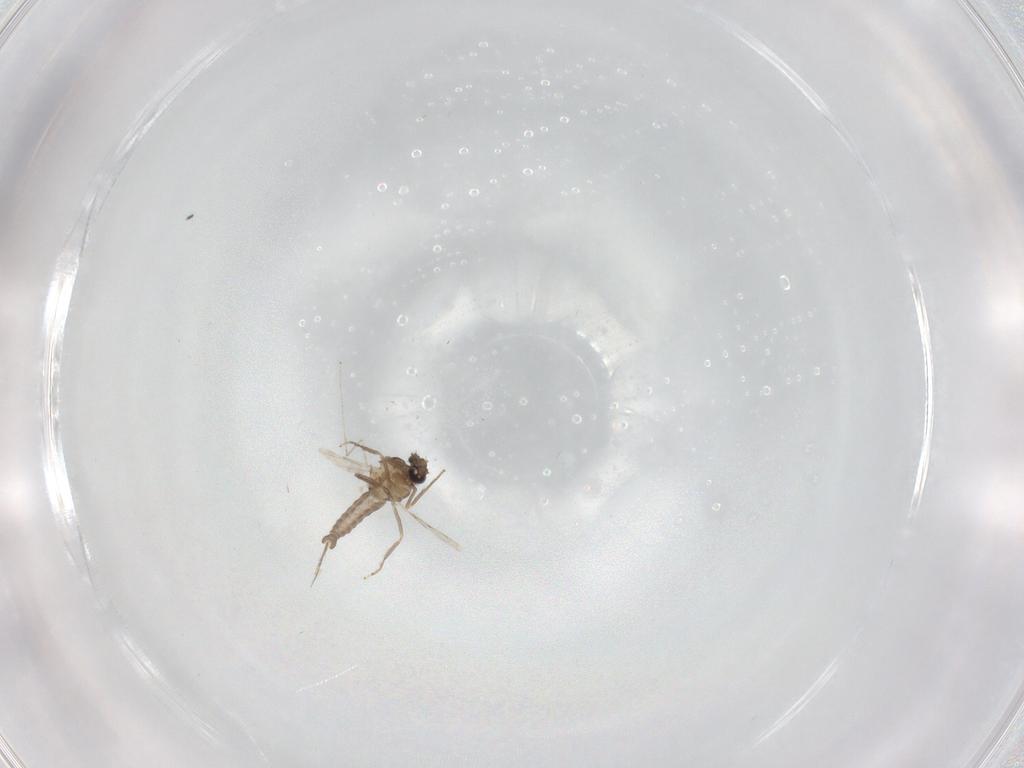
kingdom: Animalia
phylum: Arthropoda
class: Insecta
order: Diptera
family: Ceratopogonidae
